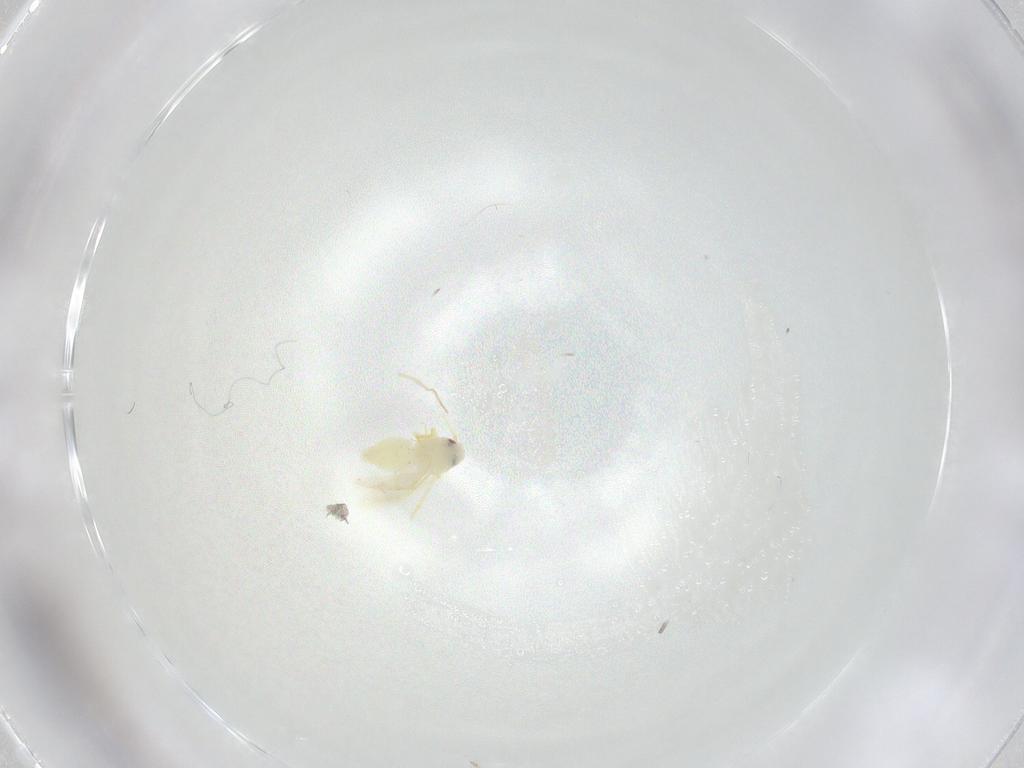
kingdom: Animalia
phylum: Arthropoda
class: Insecta
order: Hemiptera
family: Aleyrodidae
